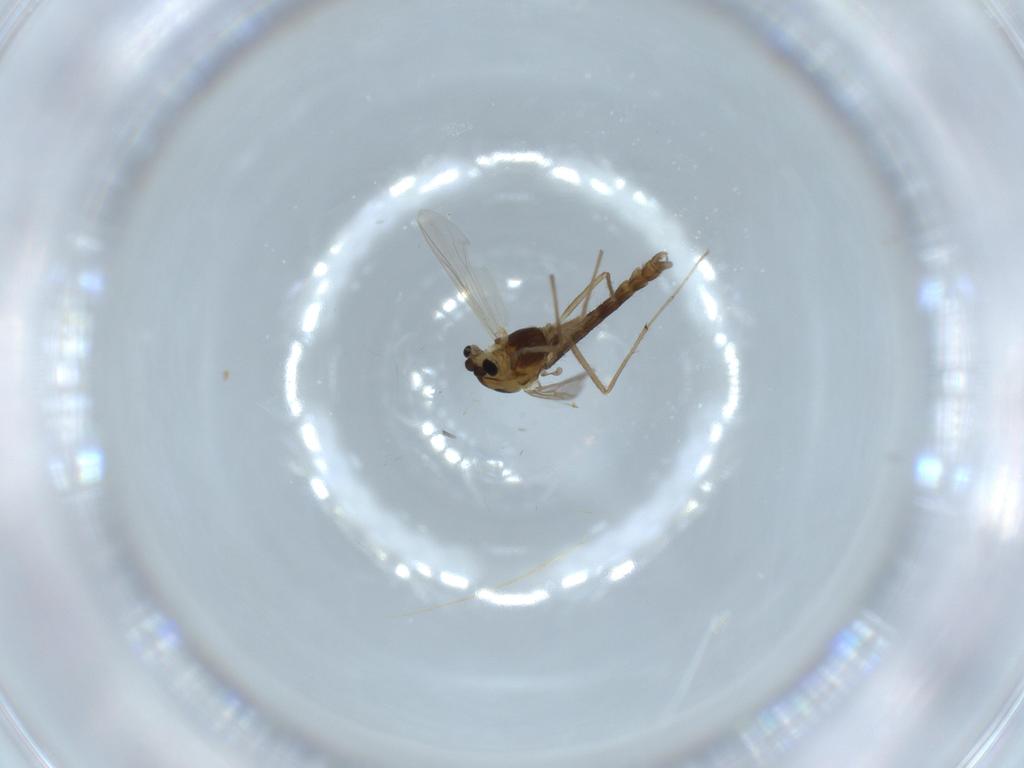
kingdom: Animalia
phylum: Arthropoda
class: Insecta
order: Diptera
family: Chironomidae
